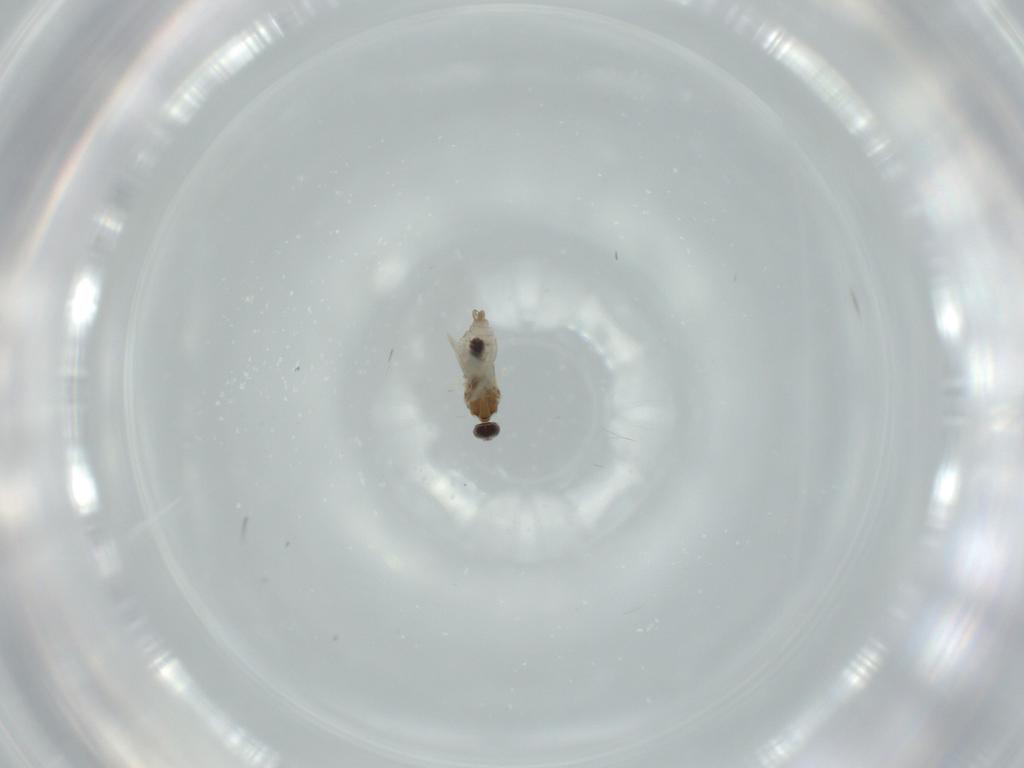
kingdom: Animalia
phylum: Arthropoda
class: Insecta
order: Diptera
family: Cecidomyiidae
